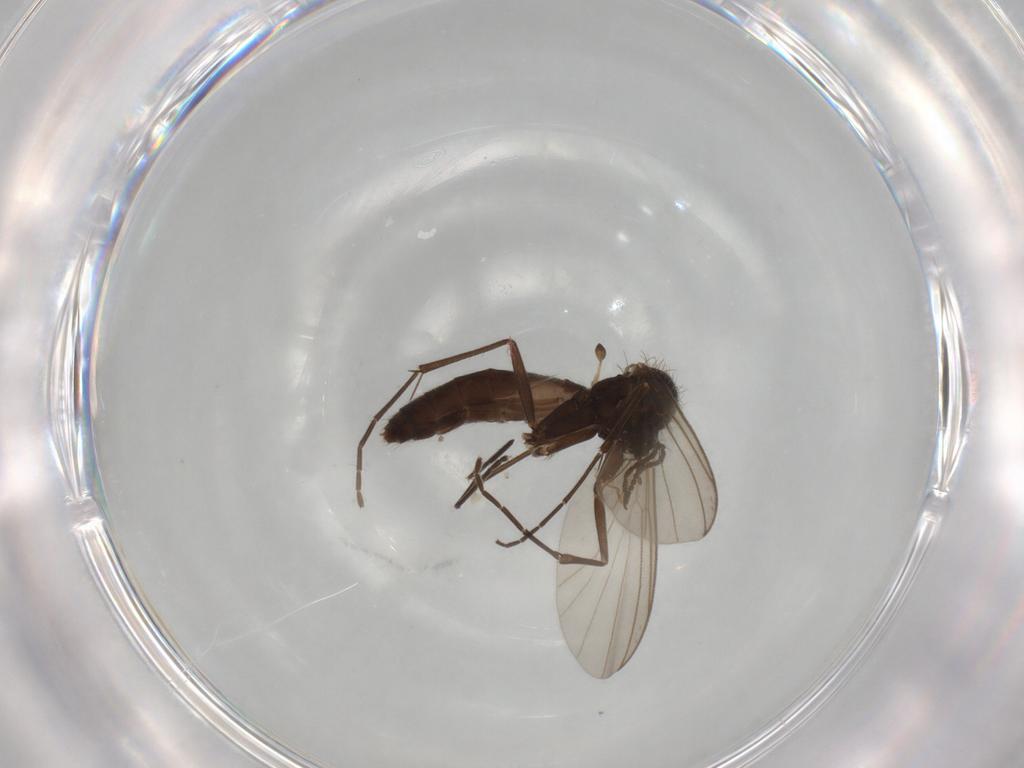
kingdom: Animalia
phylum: Arthropoda
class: Insecta
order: Diptera
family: Mycetophilidae
